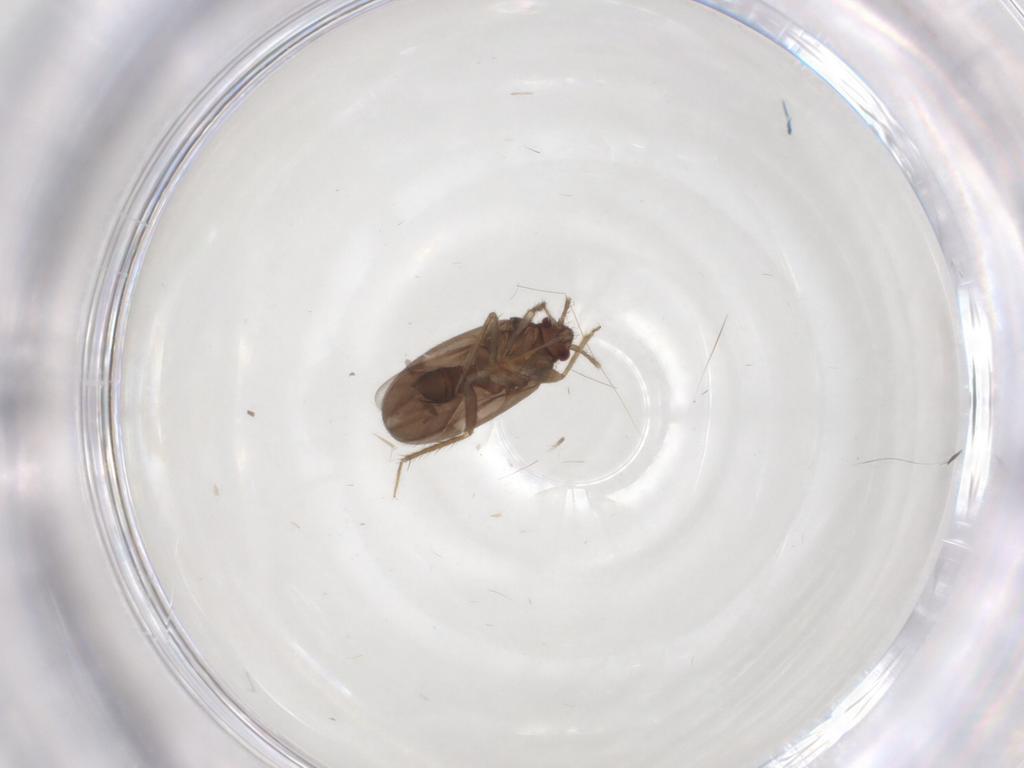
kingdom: Animalia
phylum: Arthropoda
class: Insecta
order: Hemiptera
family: Ceratocombidae
